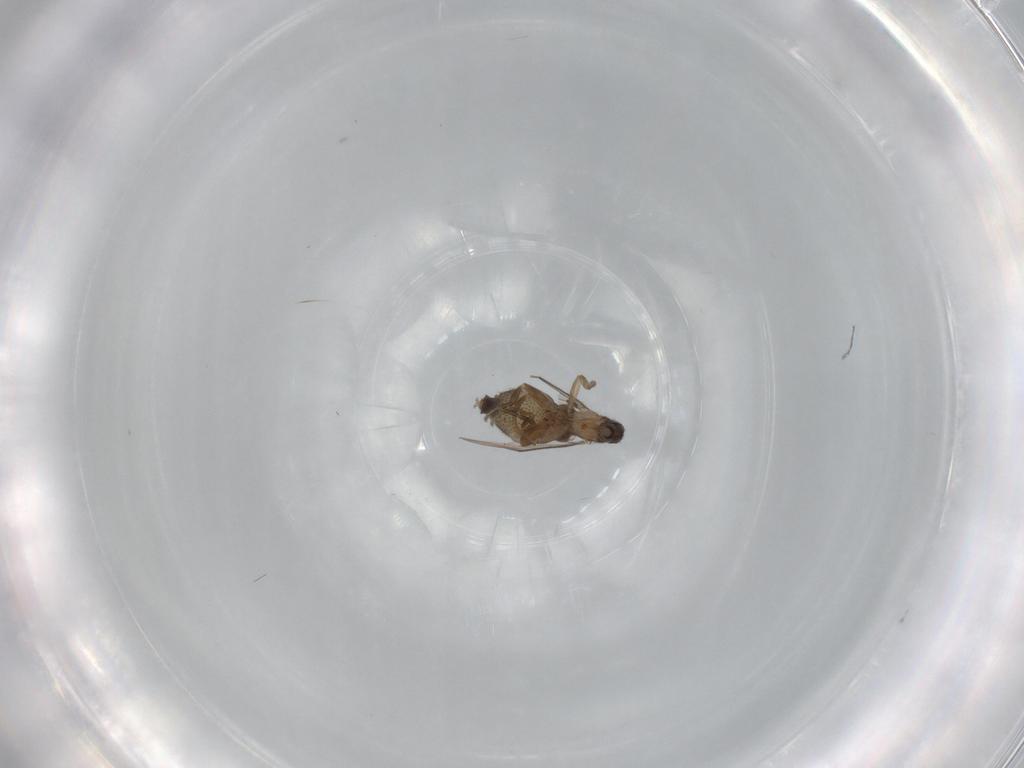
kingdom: Animalia
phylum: Arthropoda
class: Insecta
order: Diptera
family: Phoridae
